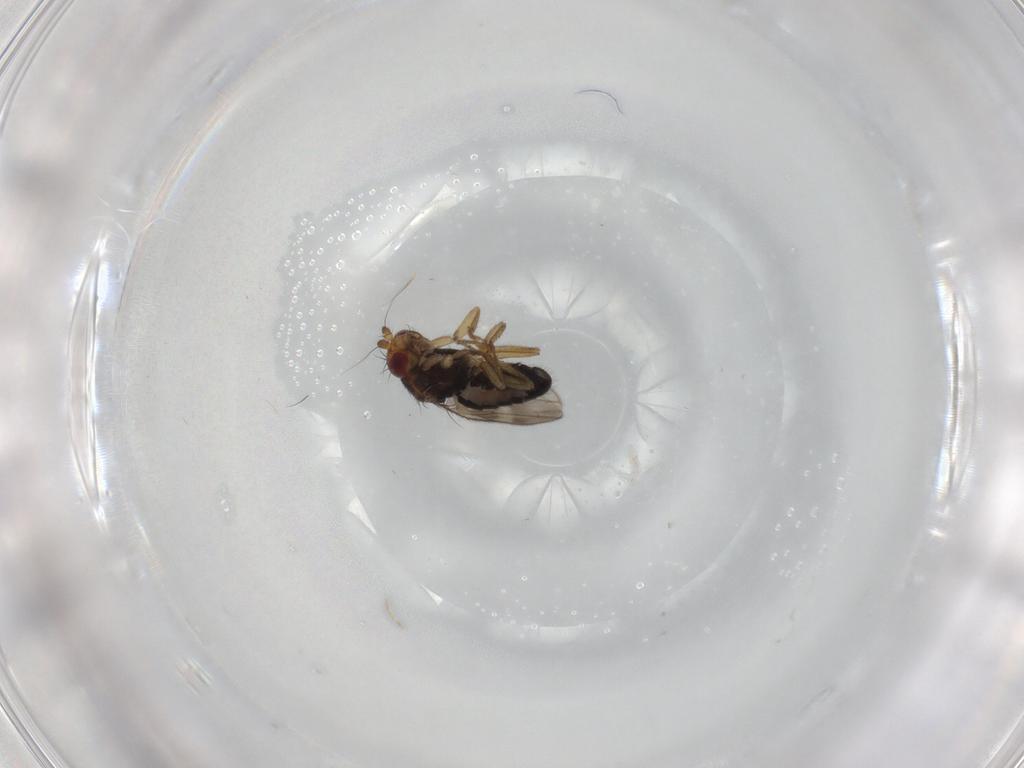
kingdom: Animalia
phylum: Arthropoda
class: Insecta
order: Diptera
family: Sphaeroceridae
